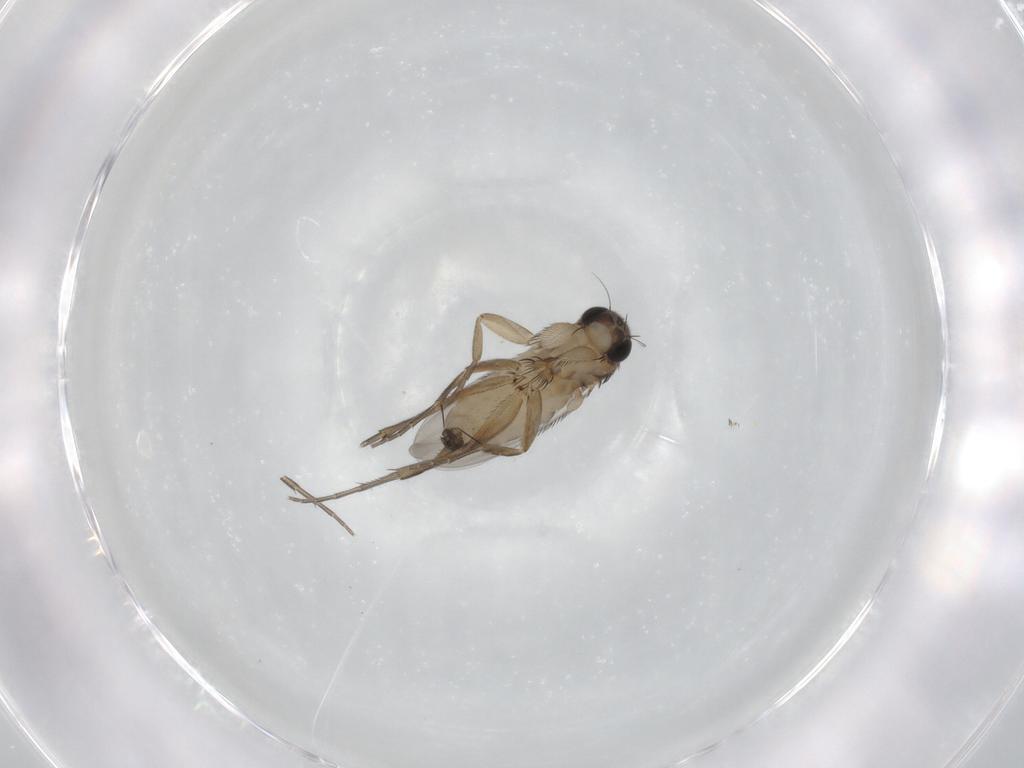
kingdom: Animalia
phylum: Arthropoda
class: Insecta
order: Diptera
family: Phoridae
